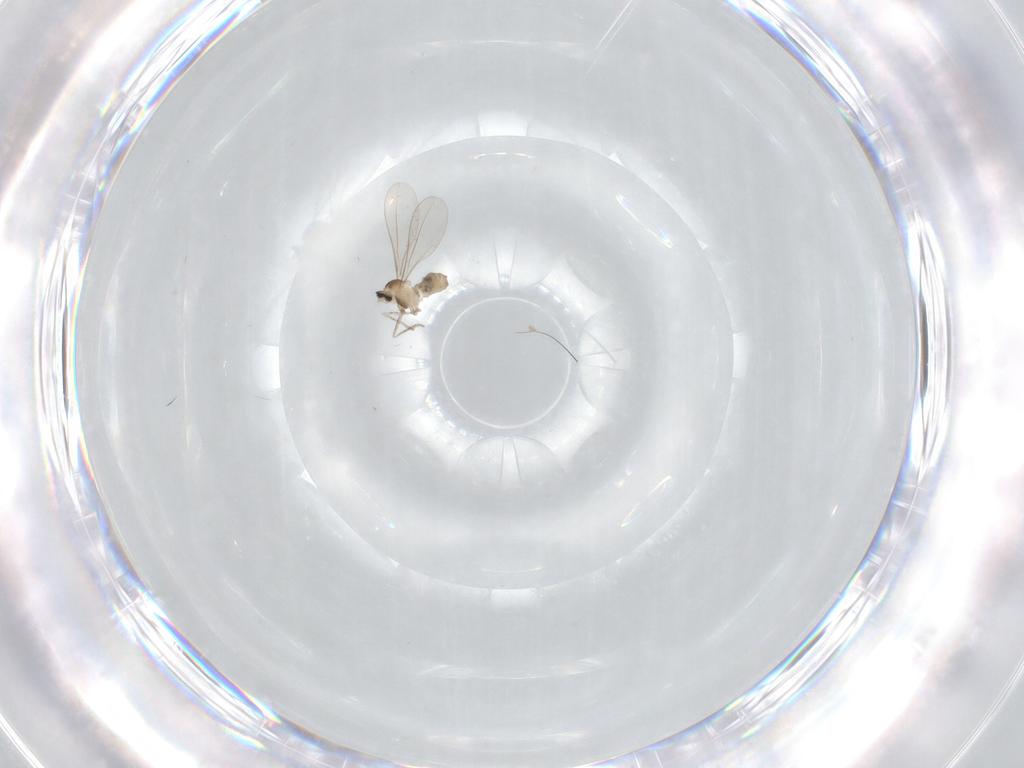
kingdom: Animalia
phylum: Arthropoda
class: Insecta
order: Diptera
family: Cecidomyiidae
